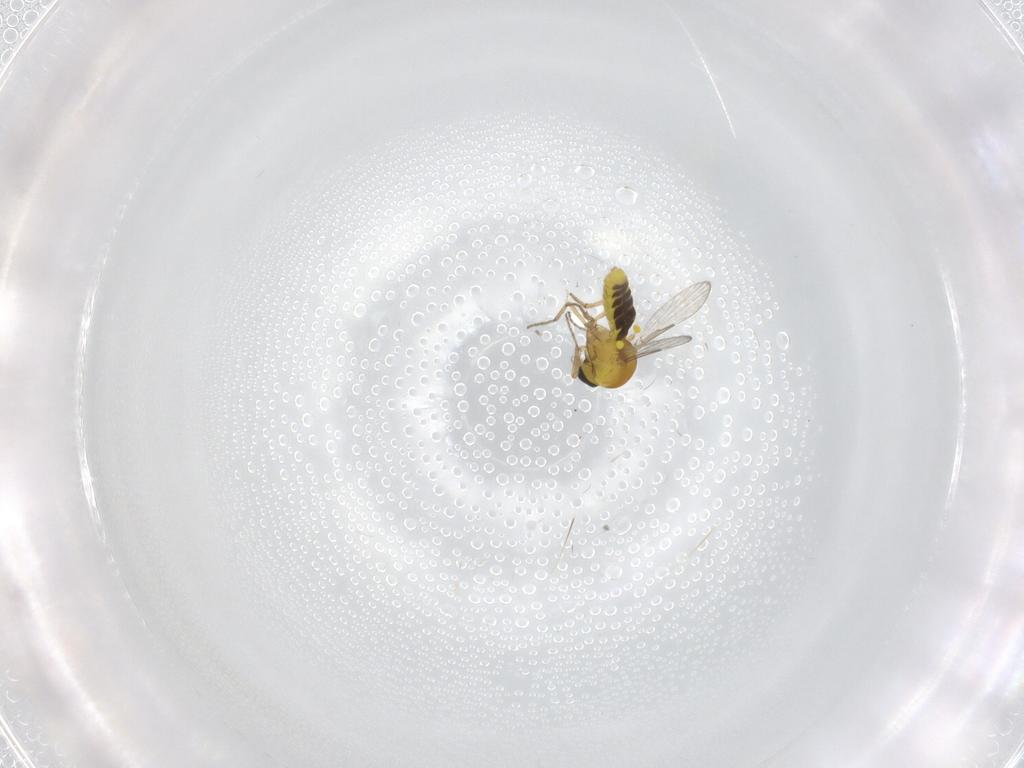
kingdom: Animalia
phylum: Arthropoda
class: Insecta
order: Diptera
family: Ceratopogonidae
